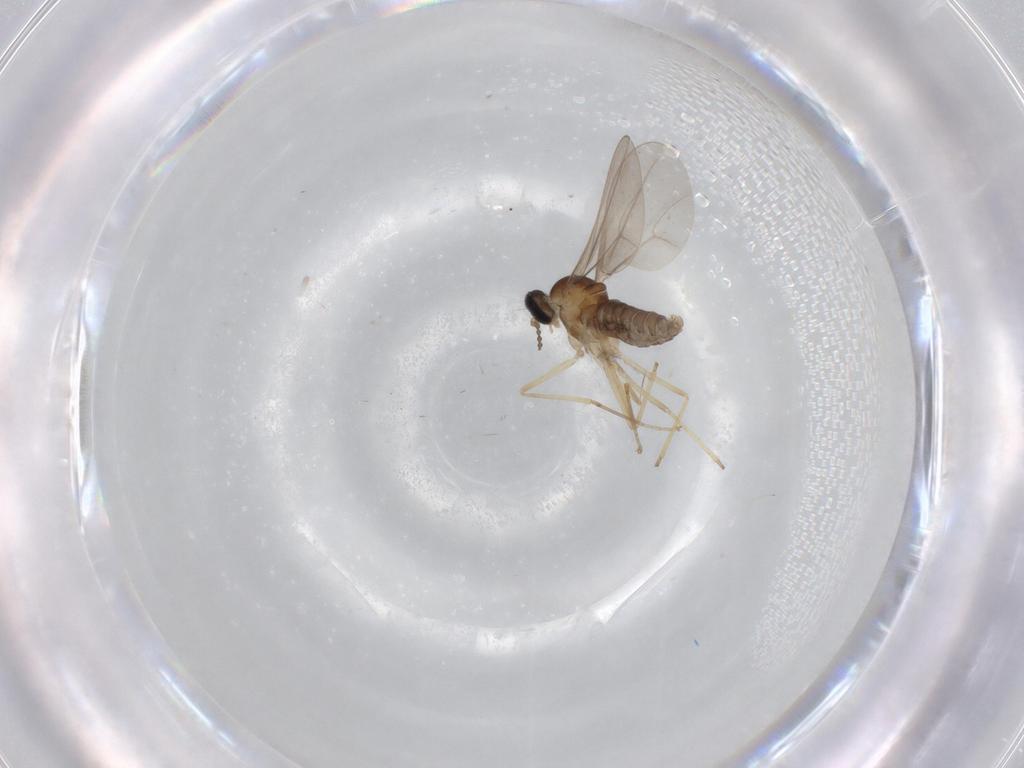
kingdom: Animalia
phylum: Arthropoda
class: Insecta
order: Diptera
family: Cecidomyiidae
